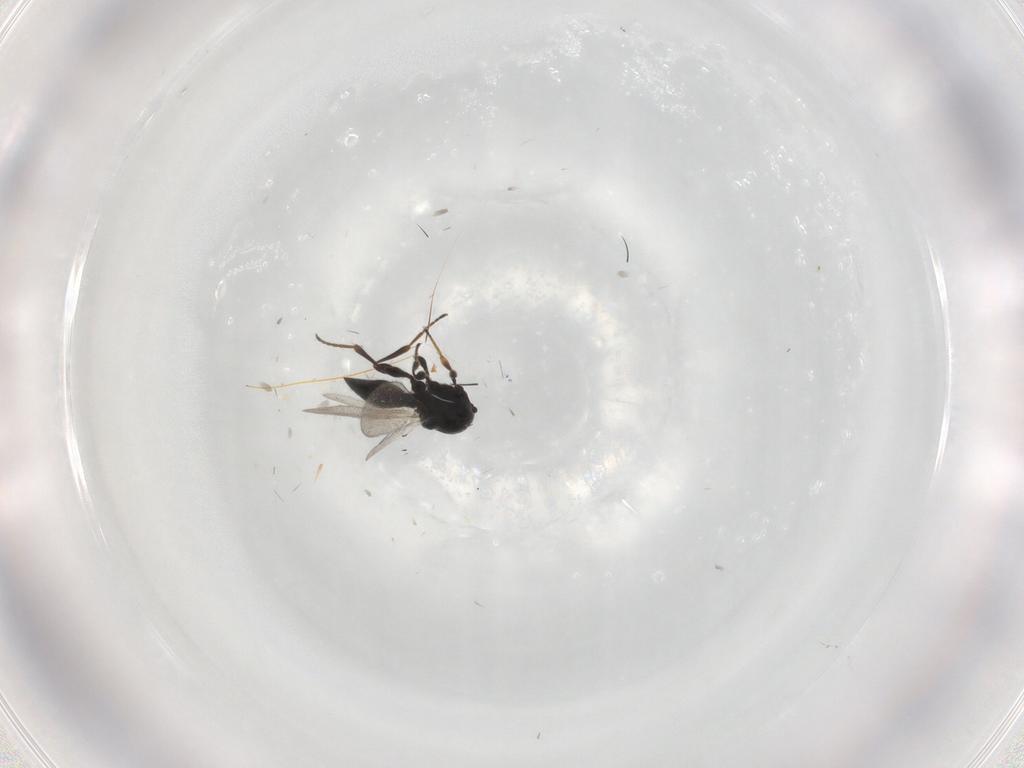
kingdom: Animalia
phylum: Arthropoda
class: Insecta
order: Hymenoptera
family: Platygastridae
